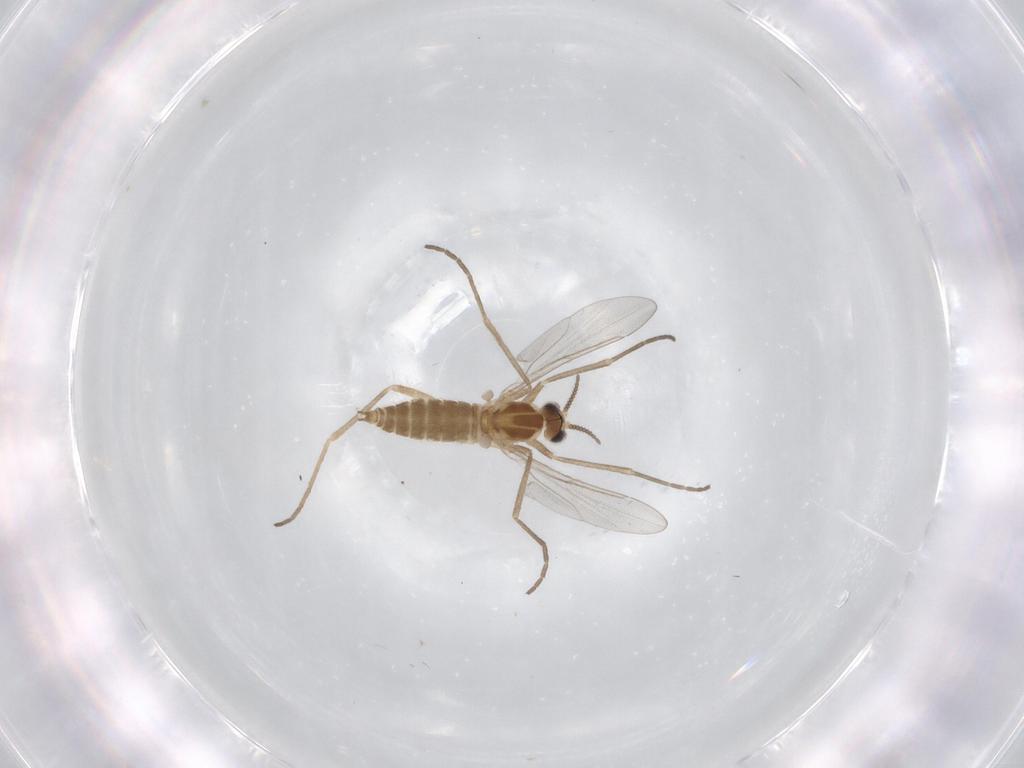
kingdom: Animalia
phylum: Arthropoda
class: Insecta
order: Diptera
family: Cecidomyiidae
